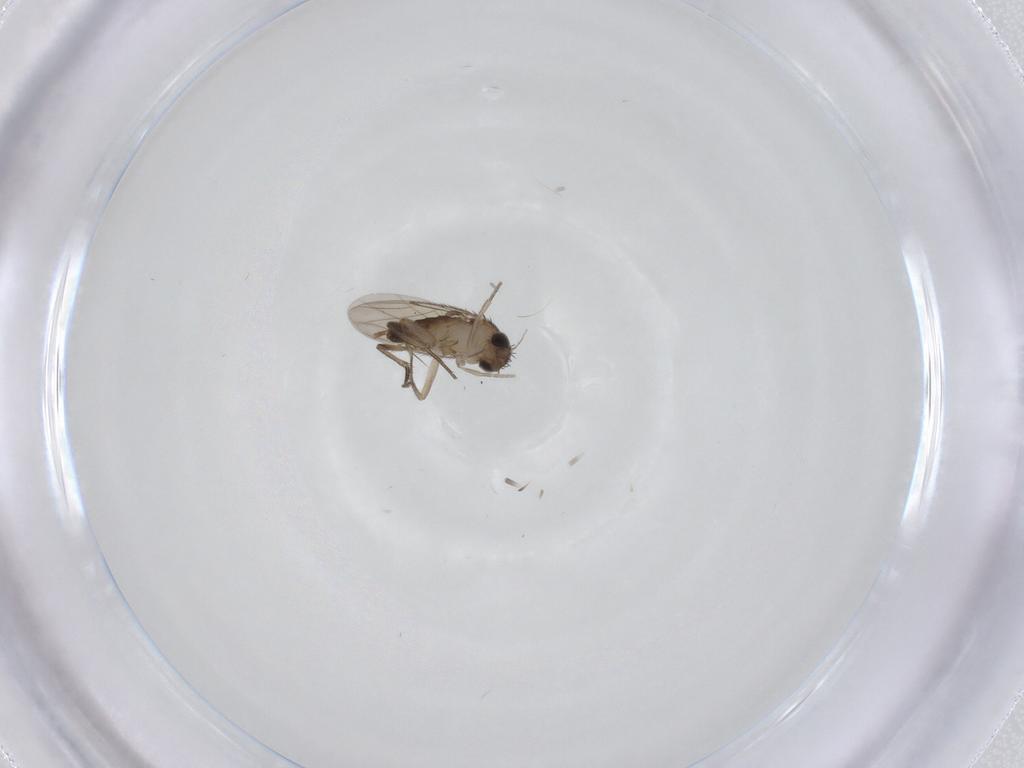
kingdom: Animalia
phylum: Arthropoda
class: Insecta
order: Diptera
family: Phoridae
